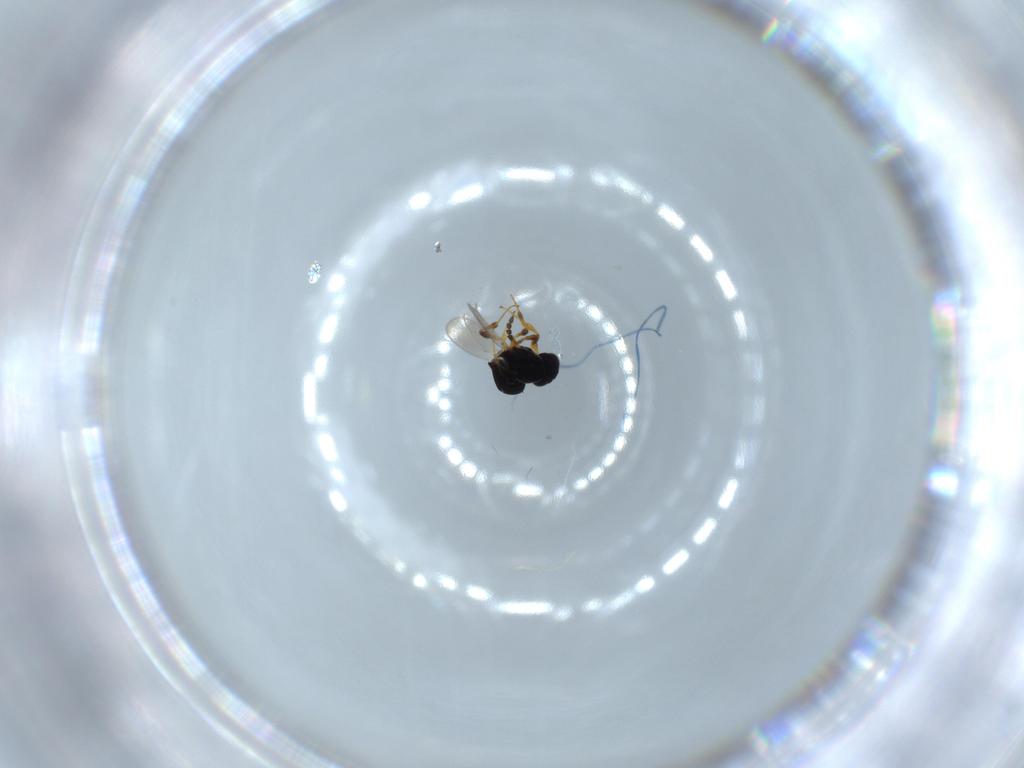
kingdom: Animalia
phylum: Arthropoda
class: Insecta
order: Hymenoptera
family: Platygastridae
